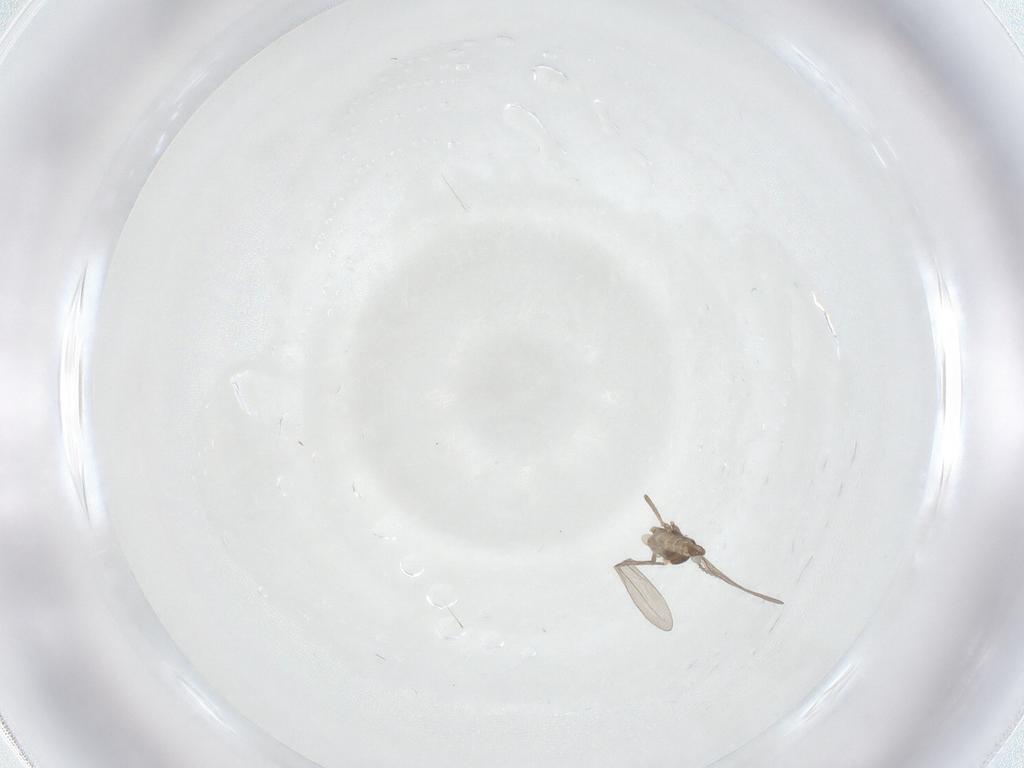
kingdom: Animalia
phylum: Arthropoda
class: Insecta
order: Diptera
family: Cecidomyiidae
